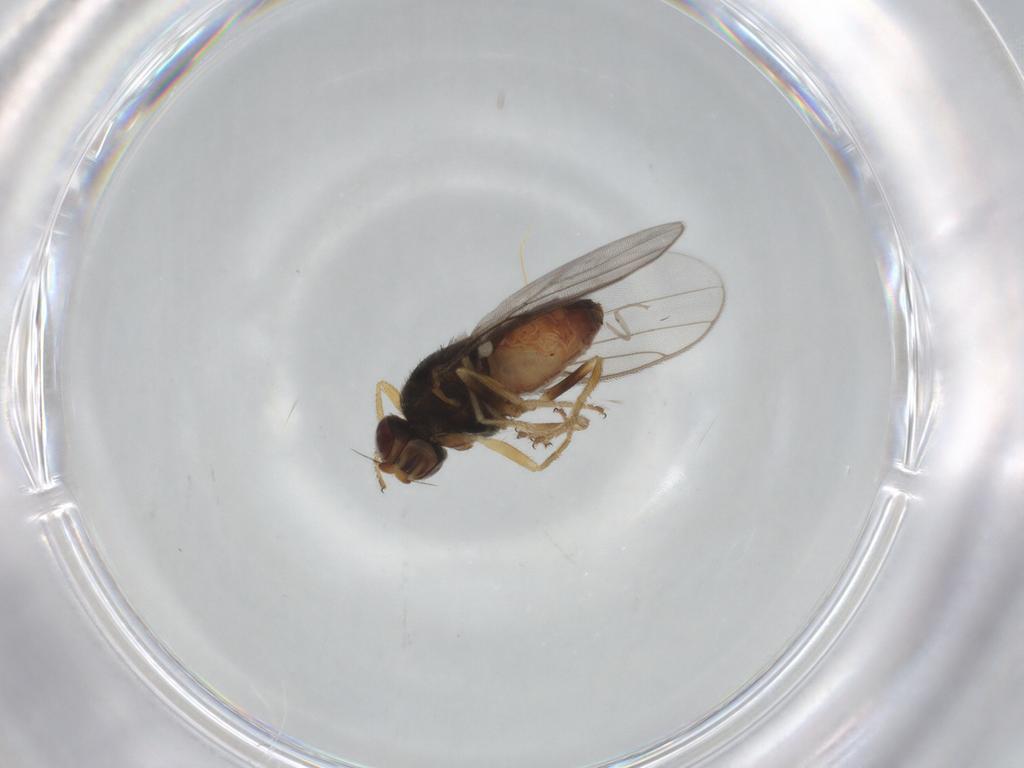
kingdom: Animalia
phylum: Arthropoda
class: Insecta
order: Diptera
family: Chloropidae
